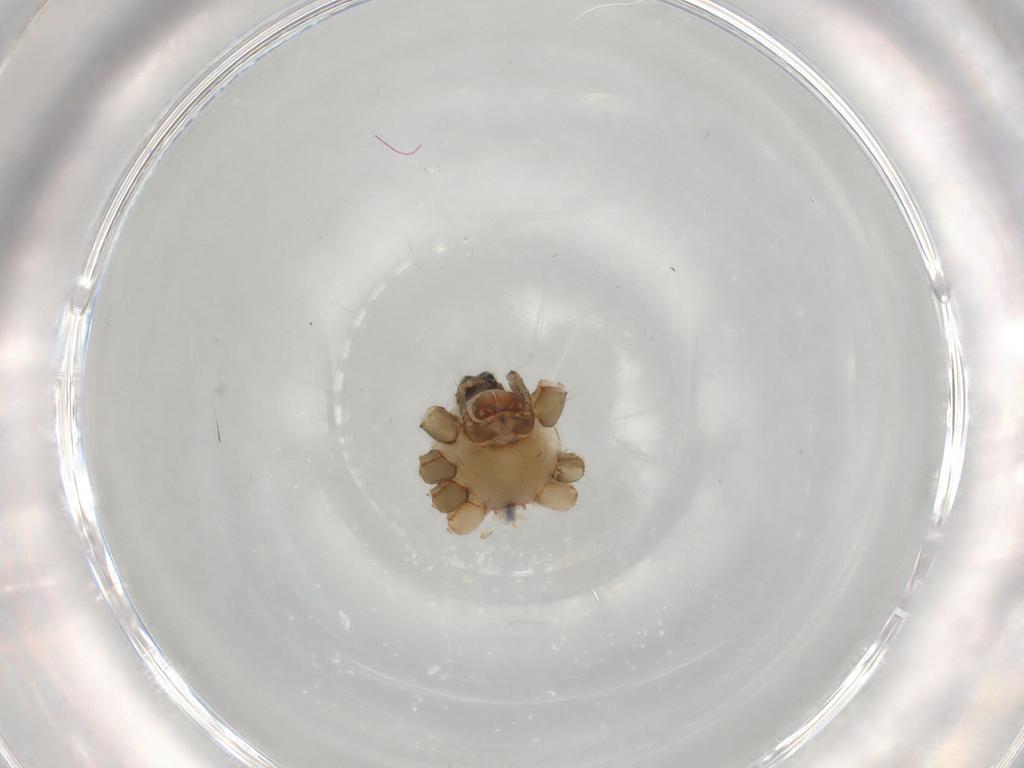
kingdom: Animalia
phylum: Arthropoda
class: Arachnida
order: Araneae
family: Pholcidae
